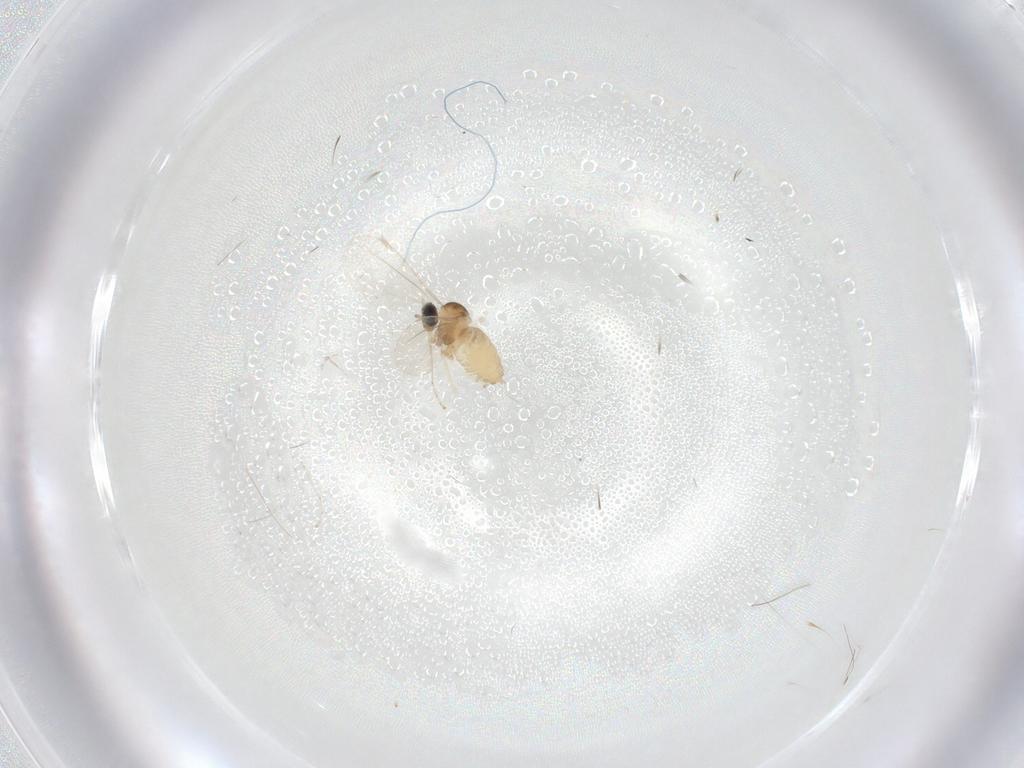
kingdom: Animalia
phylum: Arthropoda
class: Insecta
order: Diptera
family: Cecidomyiidae
